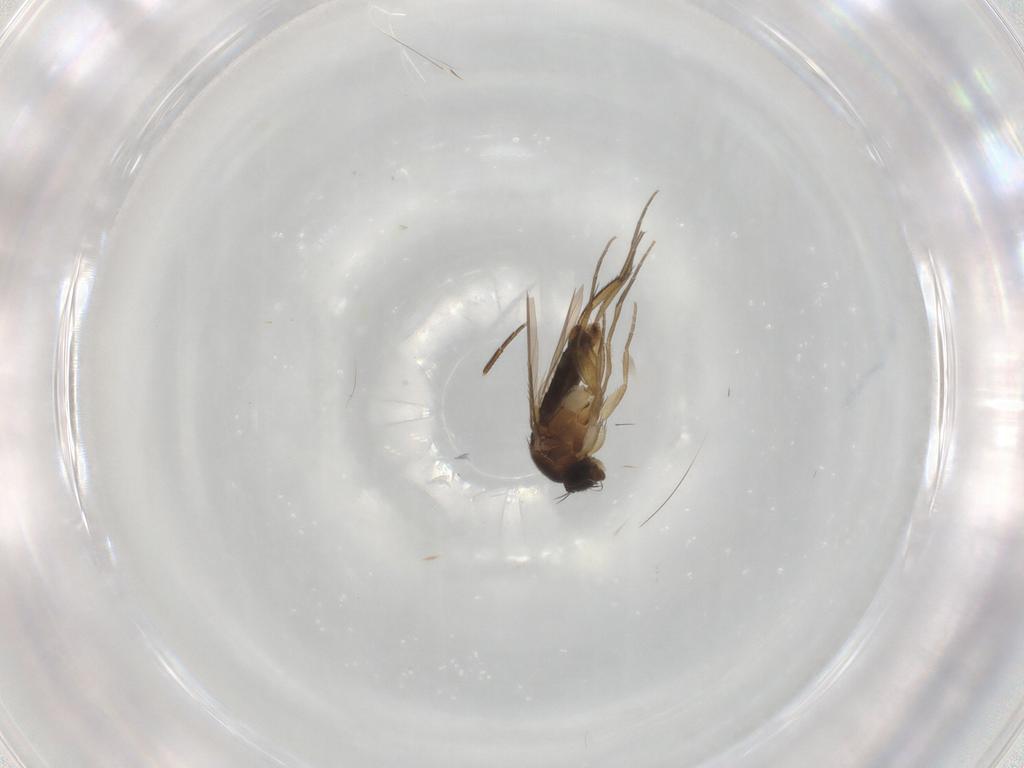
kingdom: Animalia
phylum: Arthropoda
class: Insecta
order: Diptera
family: Phoridae
